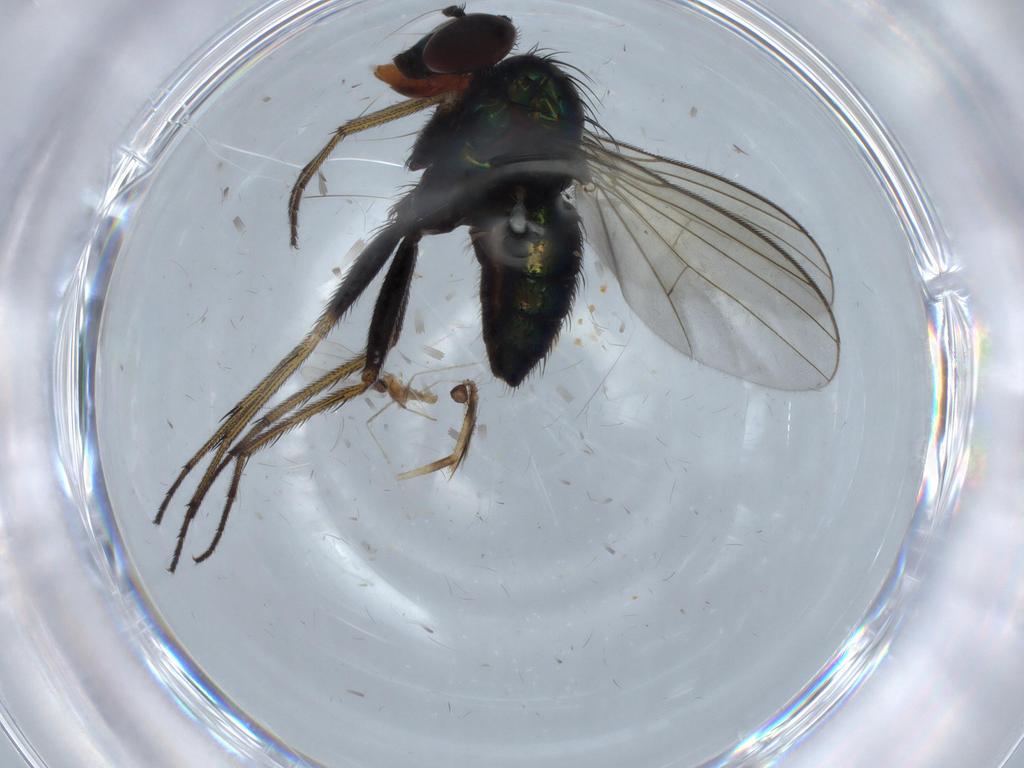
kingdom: Animalia
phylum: Arthropoda
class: Insecta
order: Diptera
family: Dolichopodidae
